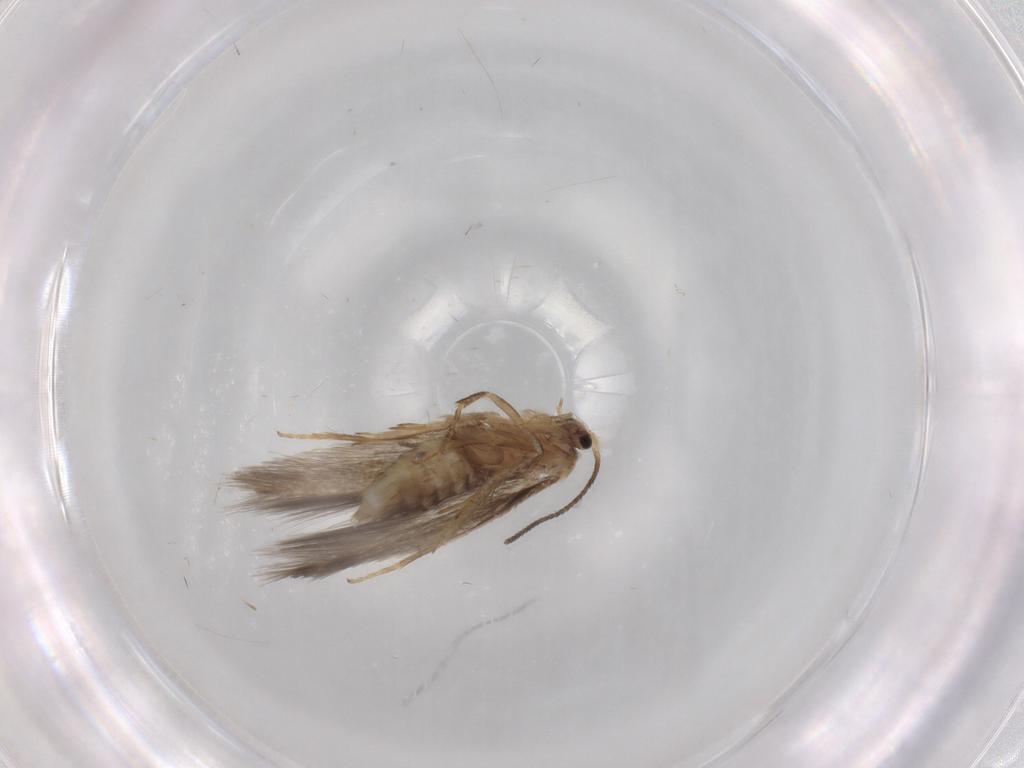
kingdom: Animalia
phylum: Arthropoda
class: Insecta
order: Lepidoptera
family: Nepticulidae
